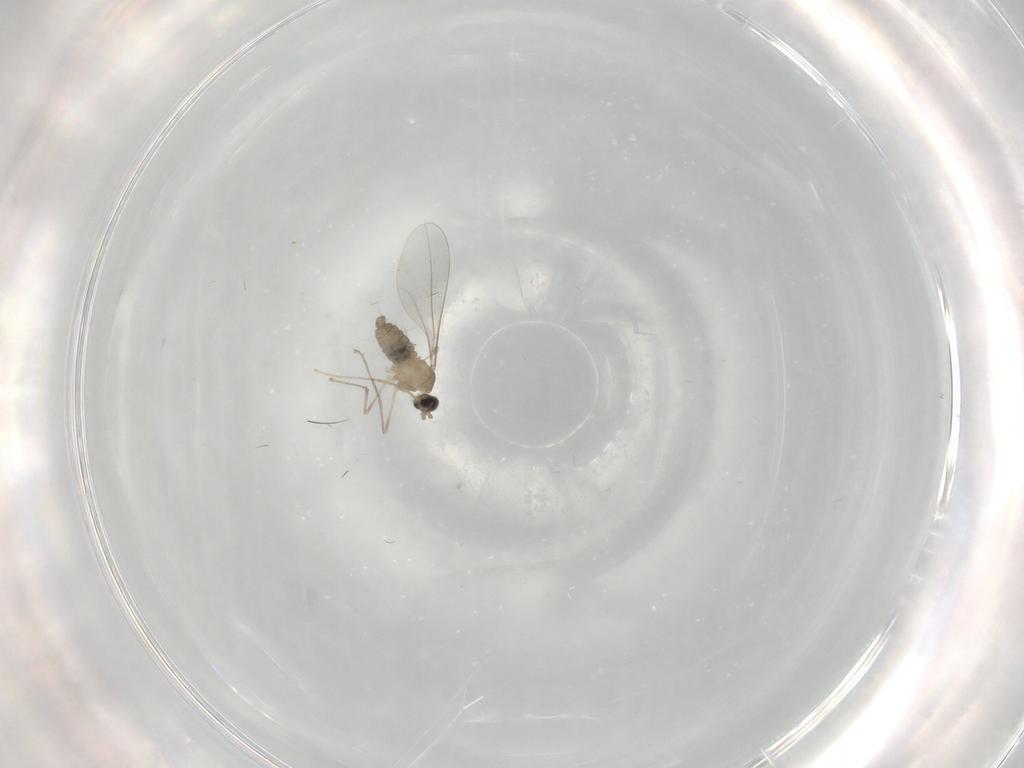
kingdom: Animalia
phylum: Arthropoda
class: Insecta
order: Diptera
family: Cecidomyiidae
